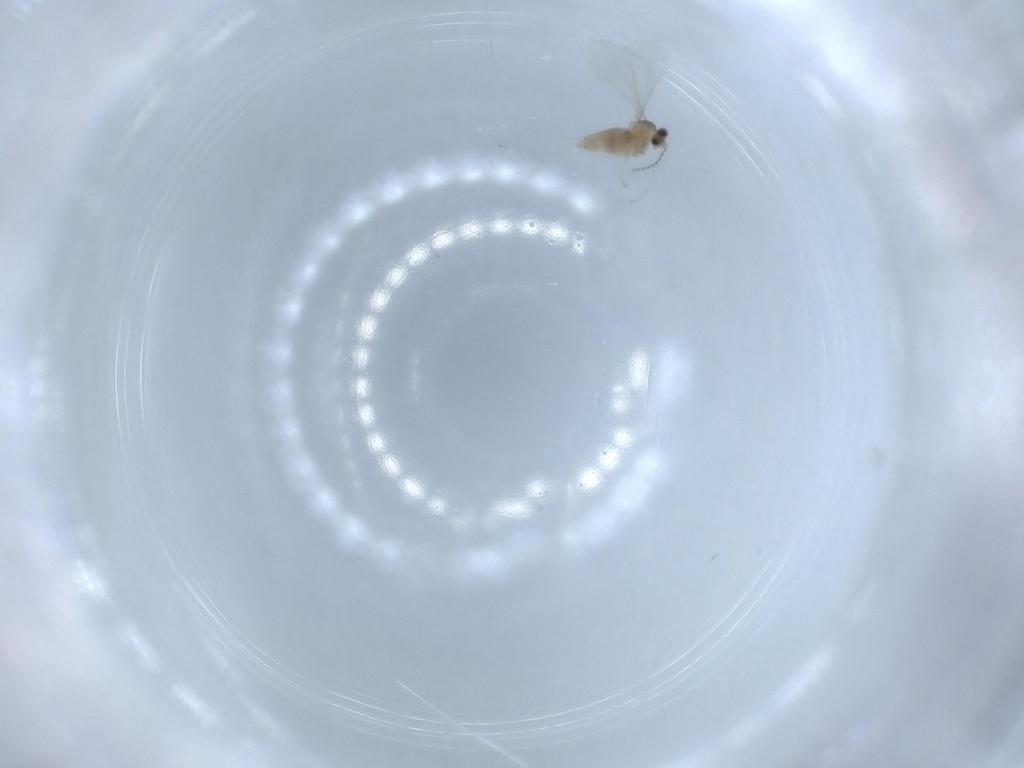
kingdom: Animalia
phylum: Arthropoda
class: Insecta
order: Diptera
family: Cecidomyiidae
